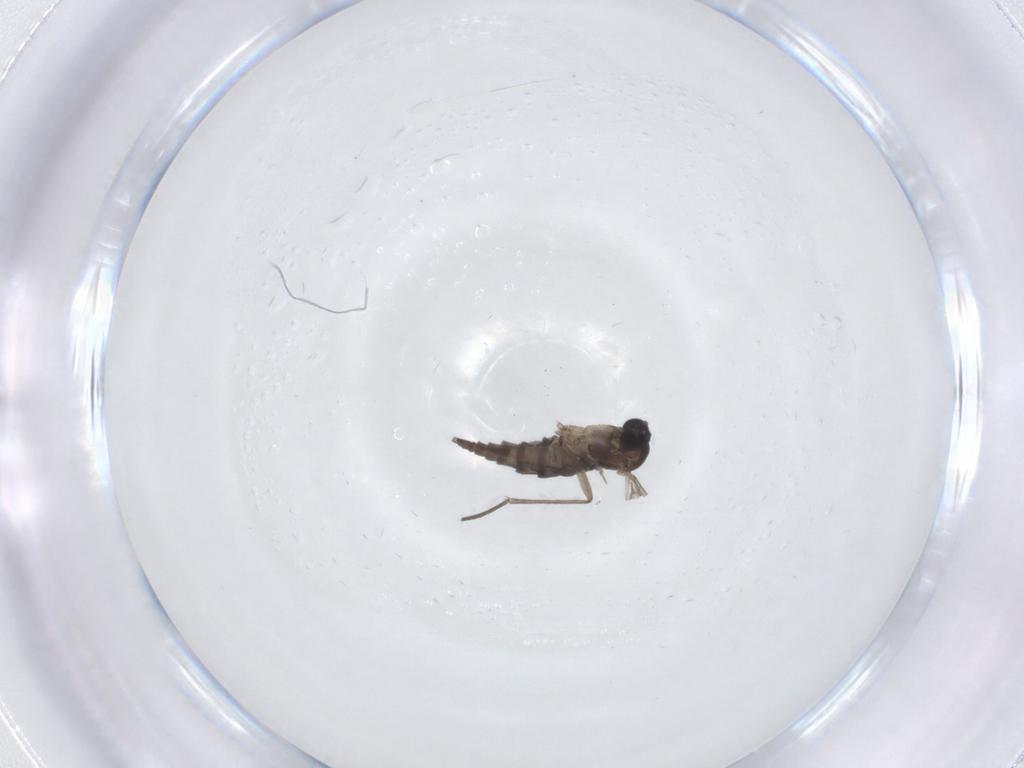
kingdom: Animalia
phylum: Arthropoda
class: Insecta
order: Diptera
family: Sciaridae
